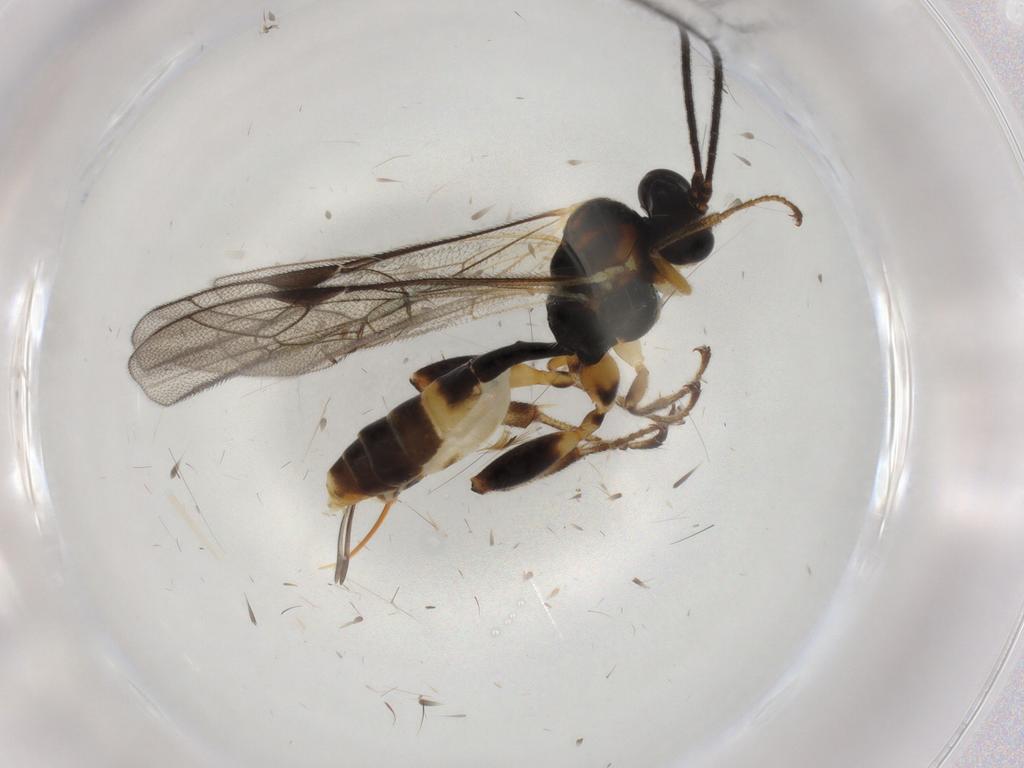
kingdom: Animalia
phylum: Arthropoda
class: Insecta
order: Hymenoptera
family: Ichneumonidae
